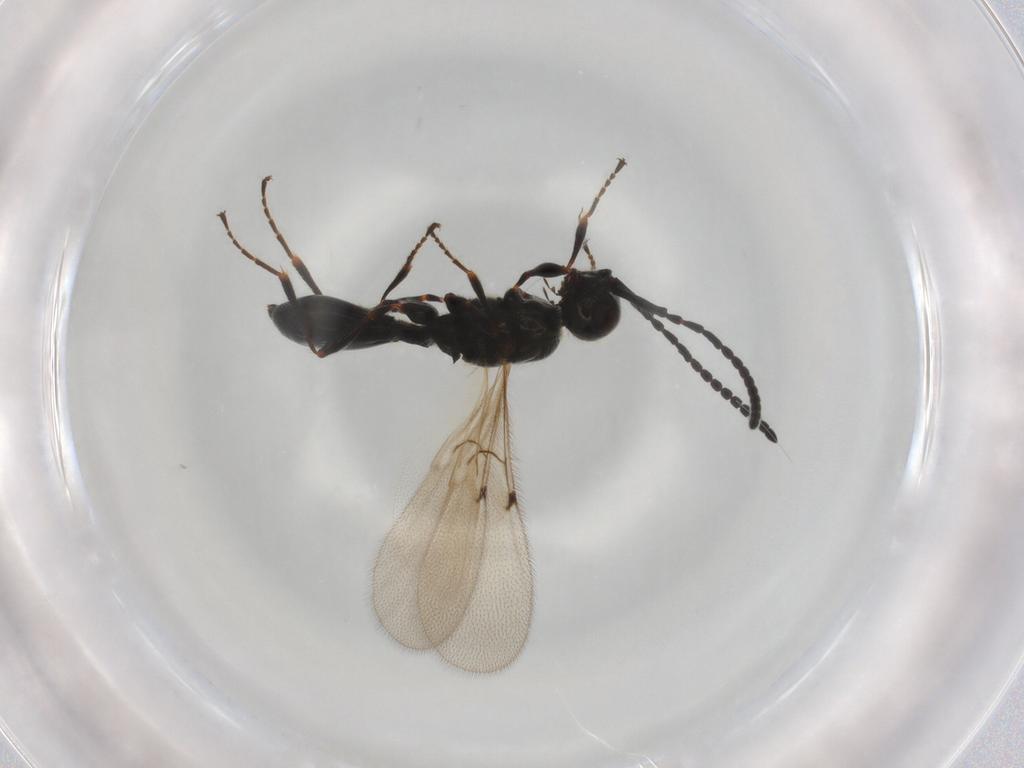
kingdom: Animalia
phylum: Arthropoda
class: Insecta
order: Hymenoptera
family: Diapriidae
